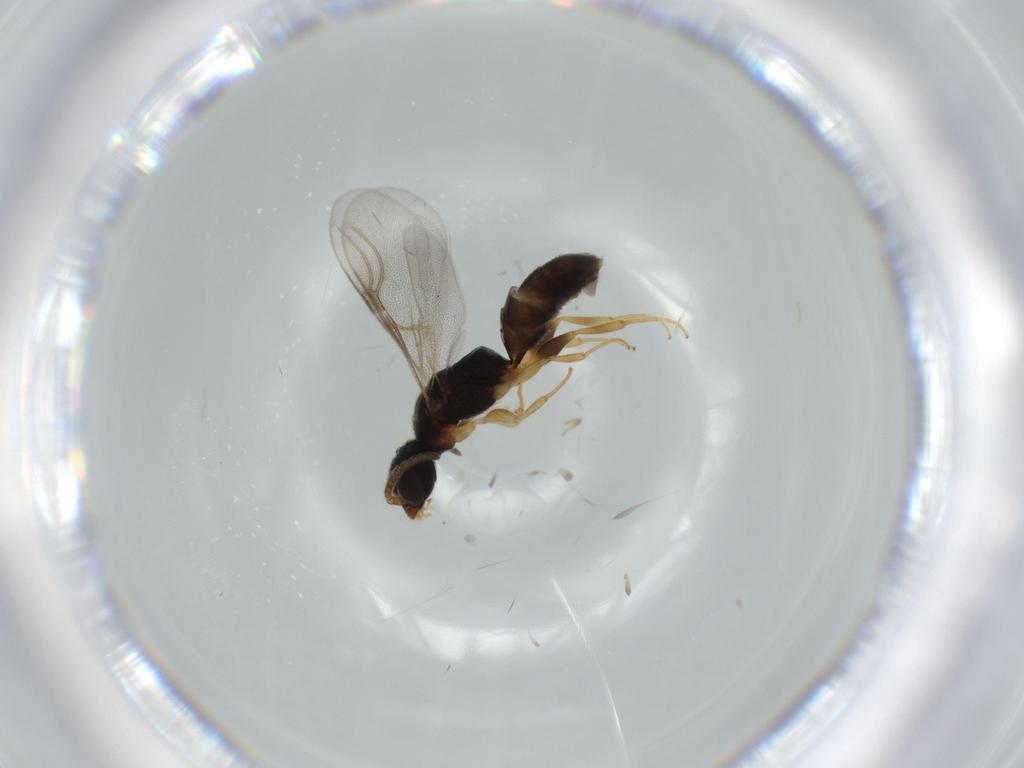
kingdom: Animalia
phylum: Arthropoda
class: Insecta
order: Hymenoptera
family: Bethylidae
